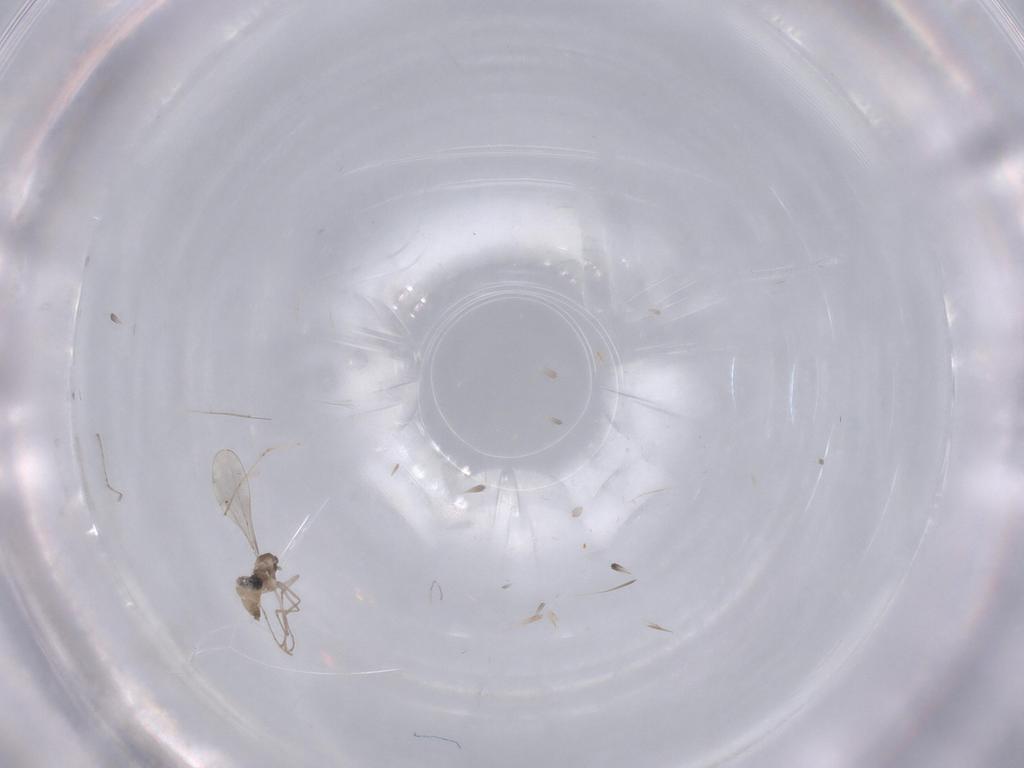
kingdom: Animalia
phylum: Arthropoda
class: Insecta
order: Diptera
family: Cecidomyiidae
